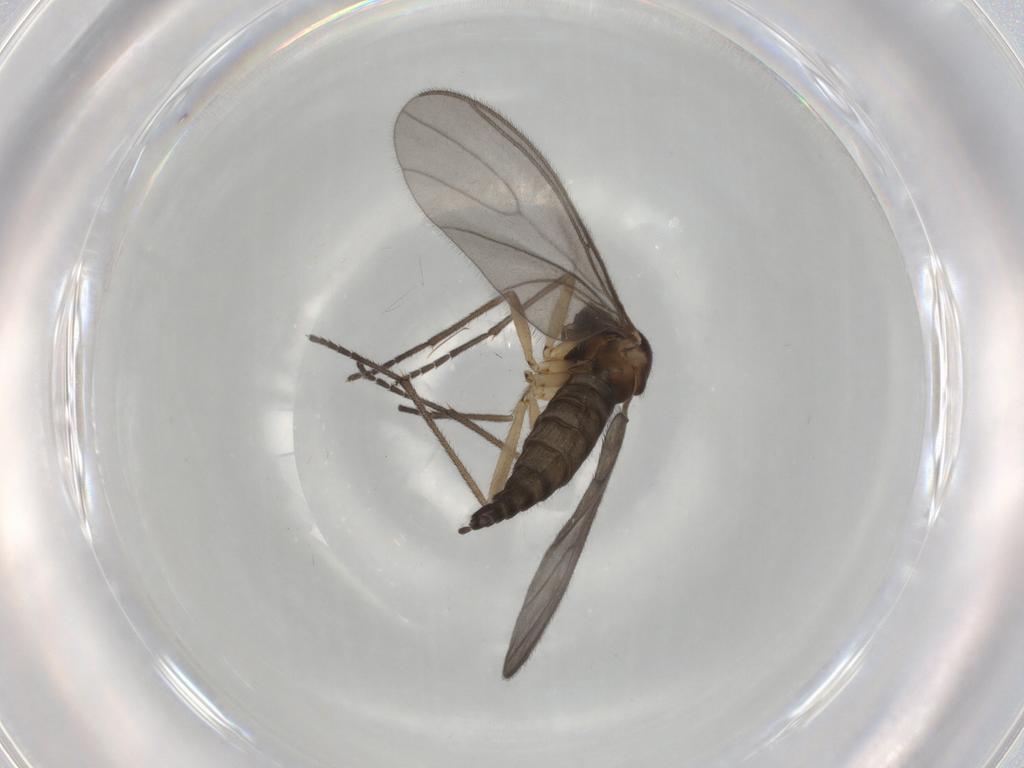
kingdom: Animalia
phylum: Arthropoda
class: Insecta
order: Diptera
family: Sciaridae
